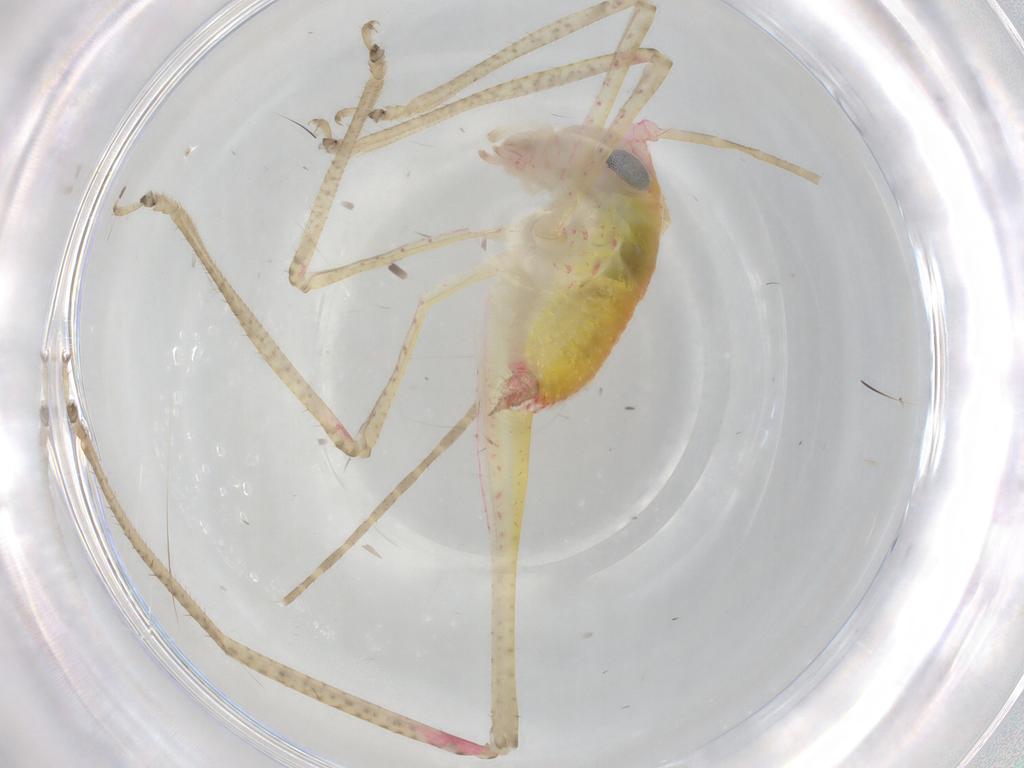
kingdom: Animalia
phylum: Arthropoda
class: Insecta
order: Orthoptera
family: Tettigoniidae
